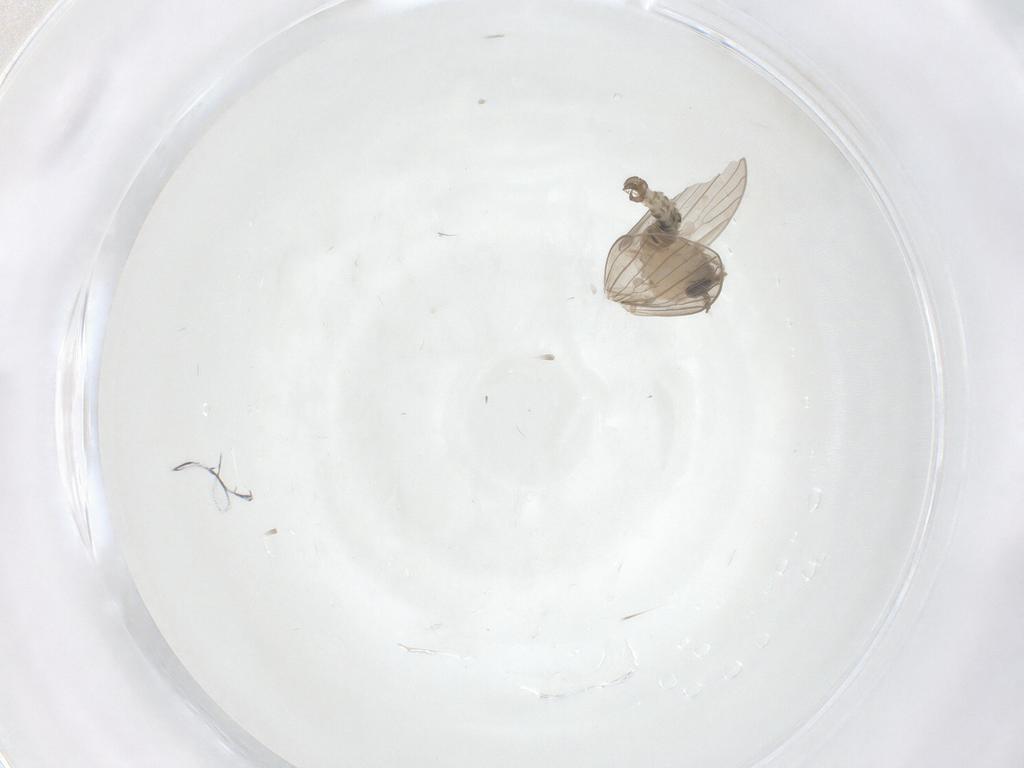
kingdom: Animalia
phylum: Arthropoda
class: Insecta
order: Diptera
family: Psychodidae
